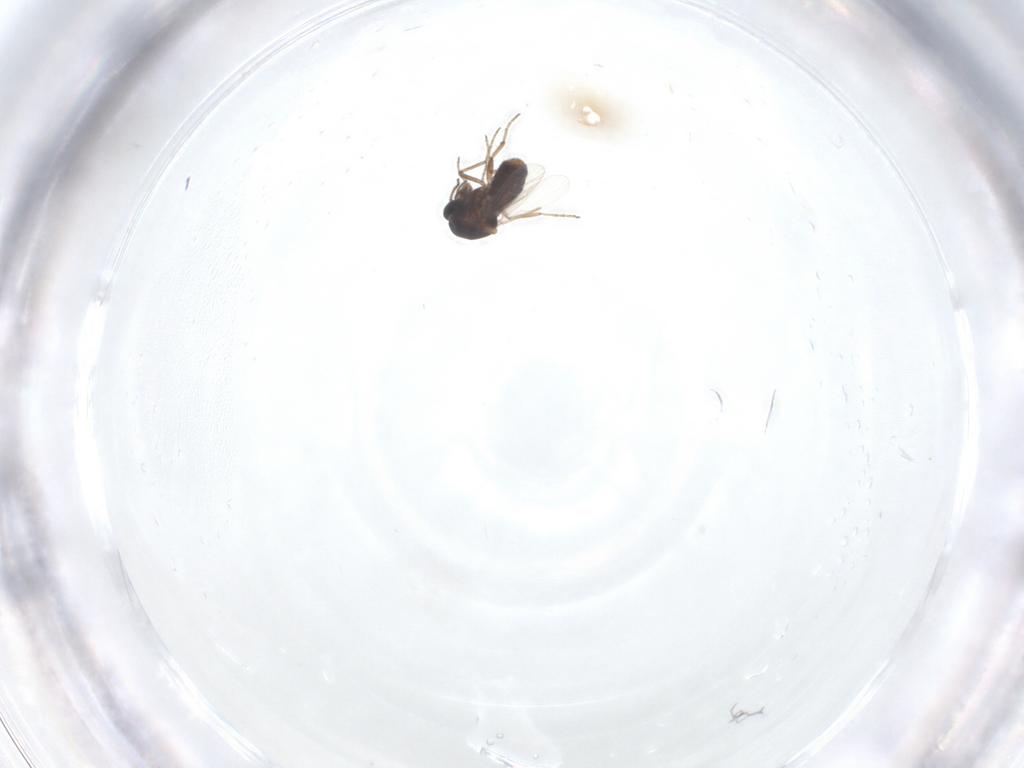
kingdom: Animalia
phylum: Arthropoda
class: Insecta
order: Diptera
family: Ceratopogonidae
